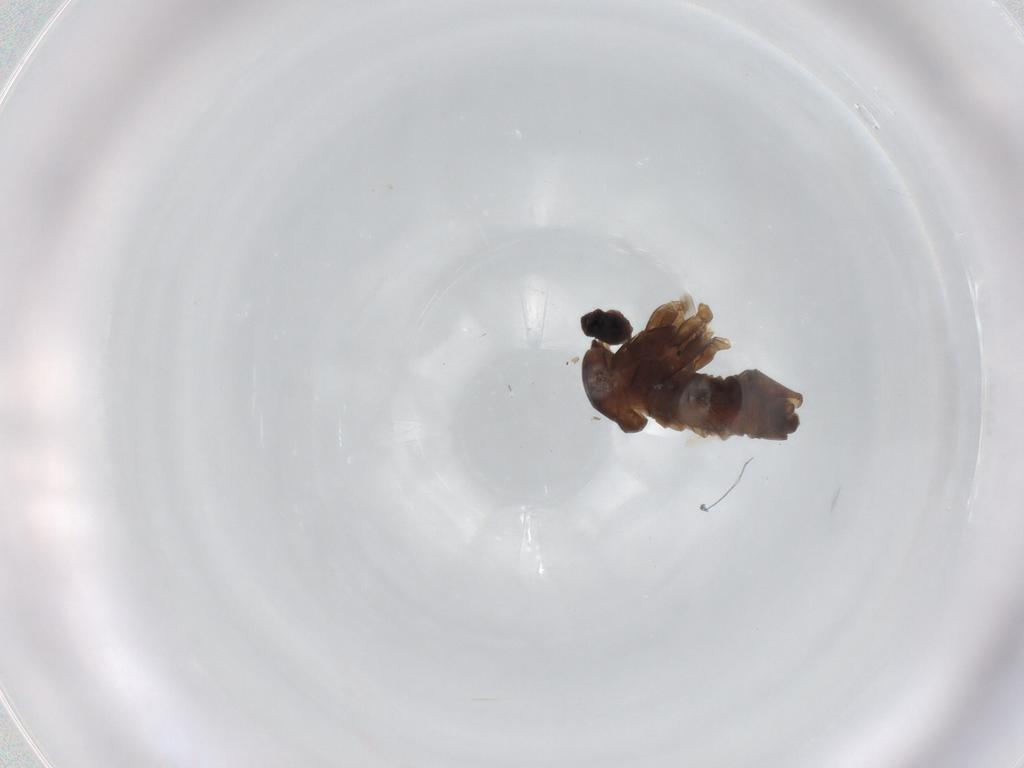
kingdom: Animalia
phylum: Arthropoda
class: Insecta
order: Diptera
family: Cecidomyiidae
